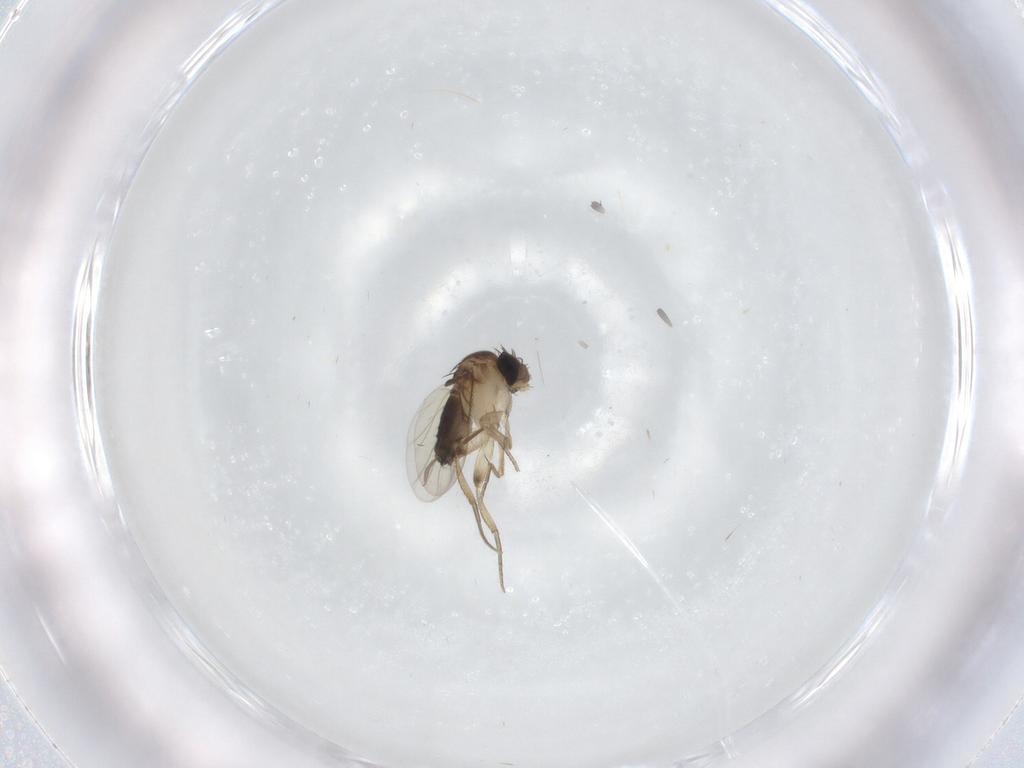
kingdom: Animalia
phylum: Arthropoda
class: Insecta
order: Diptera
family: Cecidomyiidae
